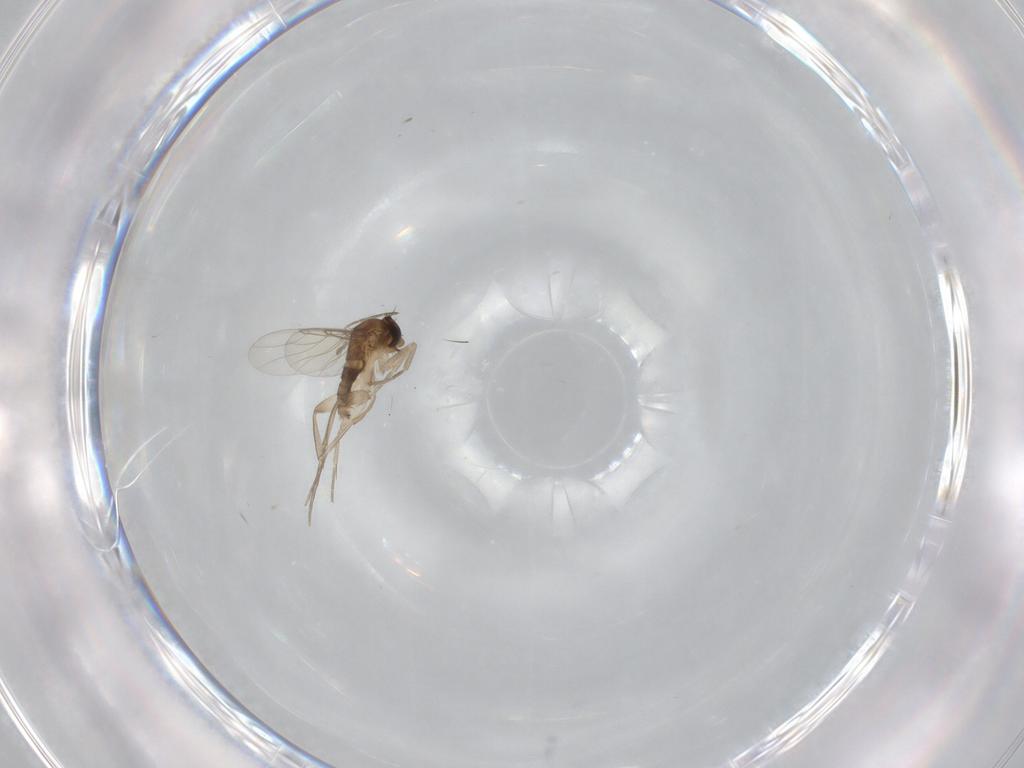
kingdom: Animalia
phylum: Arthropoda
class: Insecta
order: Diptera
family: Phoridae
